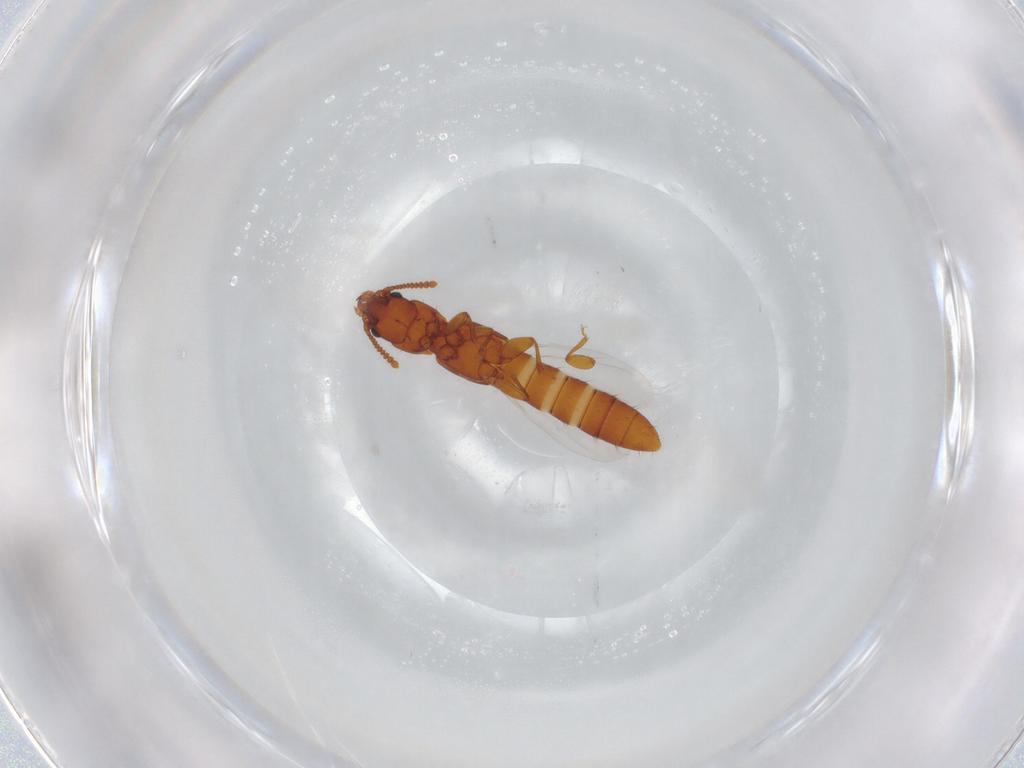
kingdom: Animalia
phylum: Arthropoda
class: Insecta
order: Coleoptera
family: Staphylinidae
